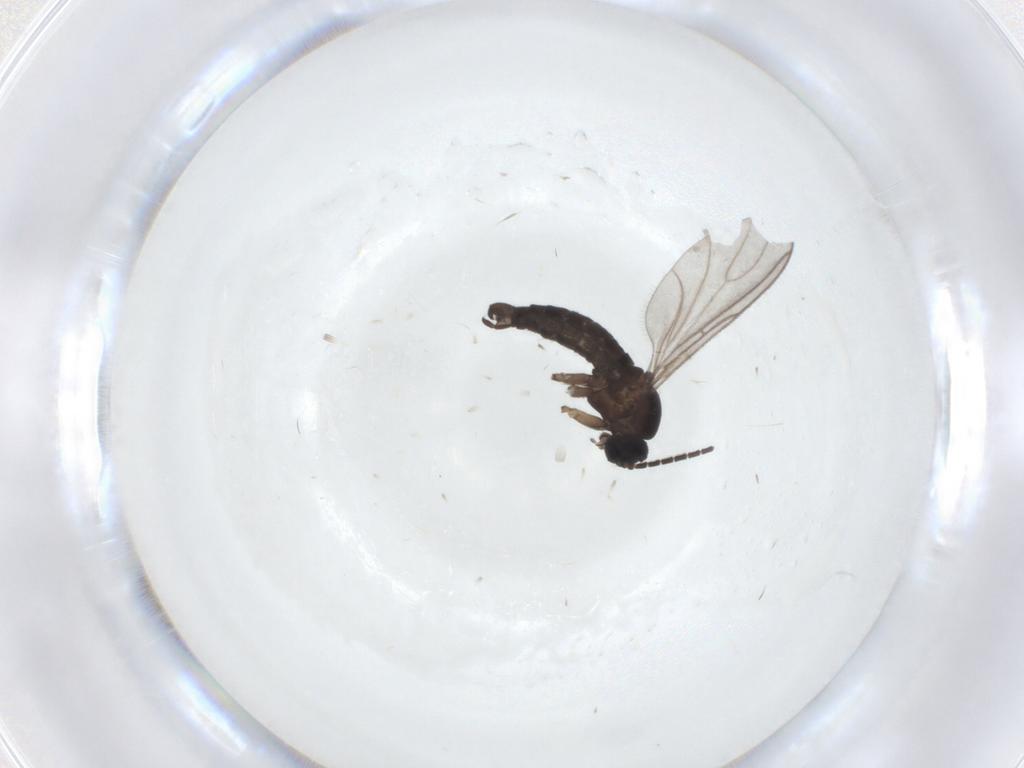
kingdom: Animalia
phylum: Arthropoda
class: Insecta
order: Diptera
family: Sciaridae
